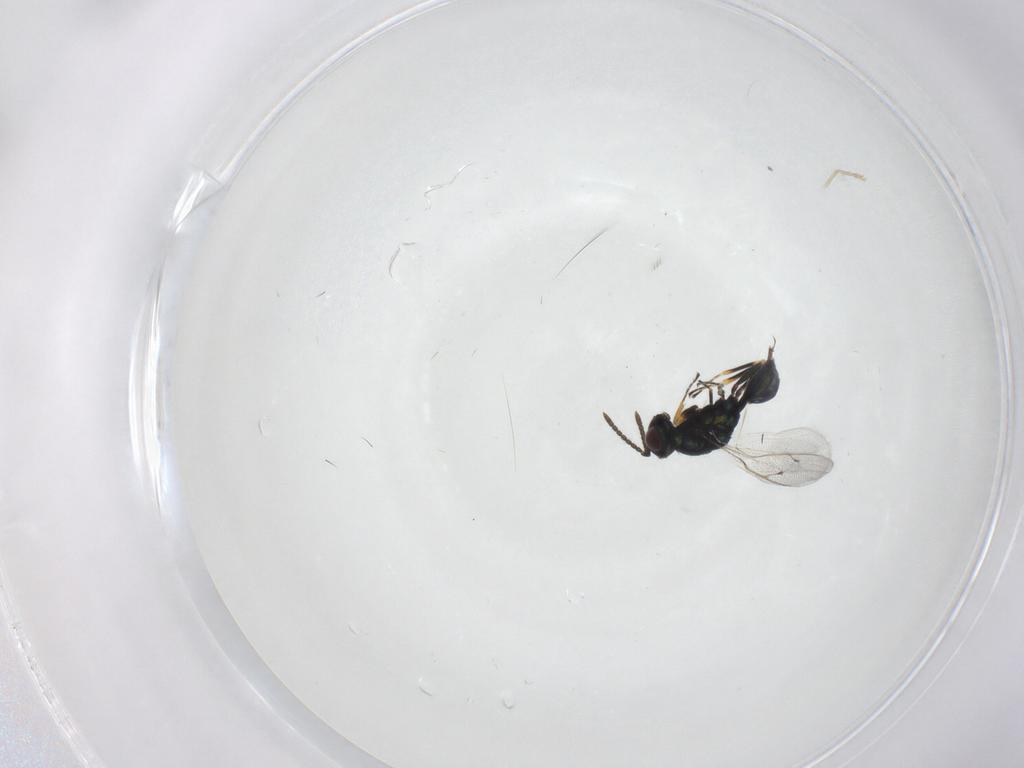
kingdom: Animalia
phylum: Arthropoda
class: Insecta
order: Hymenoptera
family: Pteromalidae
